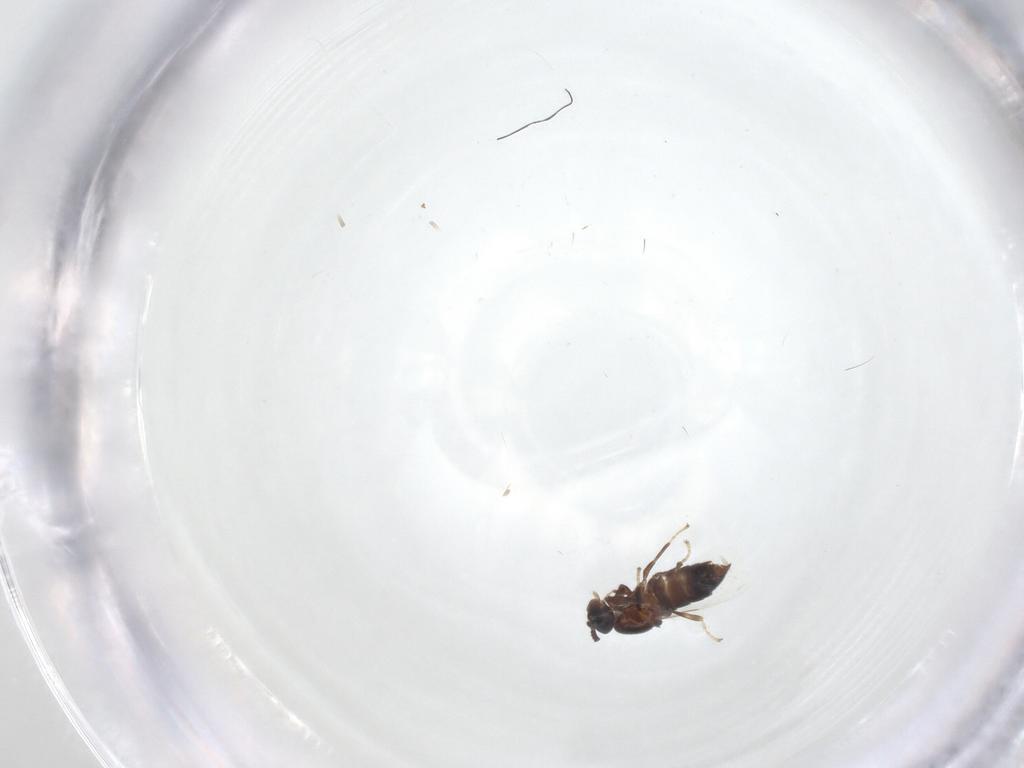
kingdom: Animalia
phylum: Arthropoda
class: Insecta
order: Diptera
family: Scatopsidae
